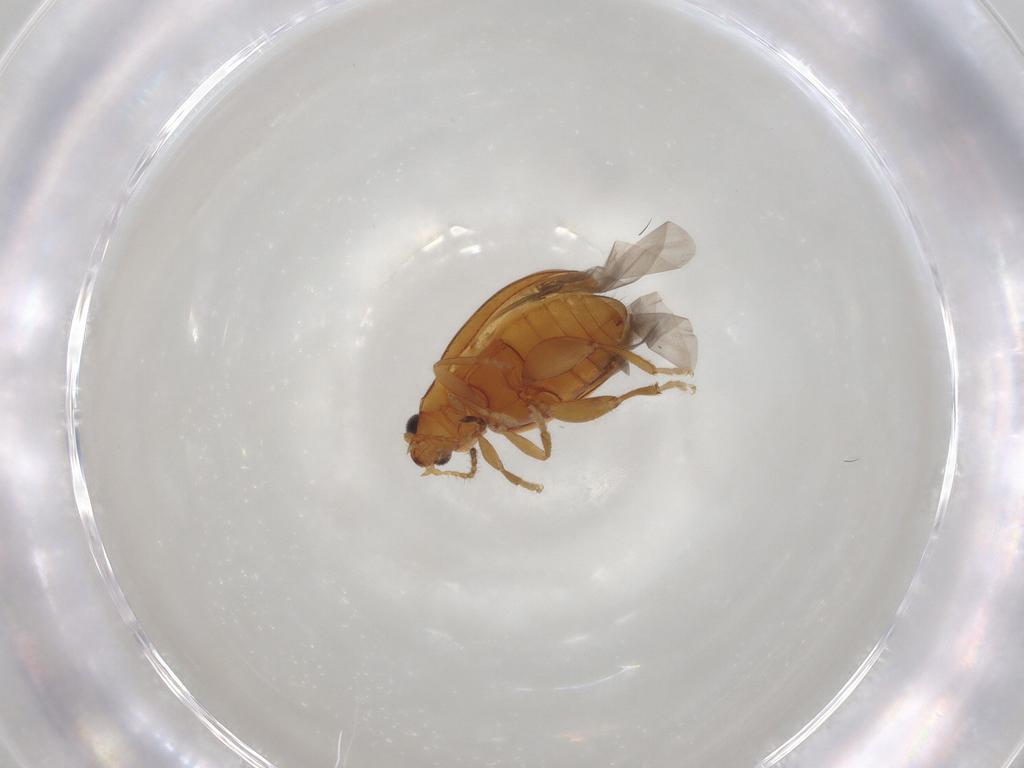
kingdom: Animalia
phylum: Arthropoda
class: Insecta
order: Coleoptera
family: Chrysomelidae
